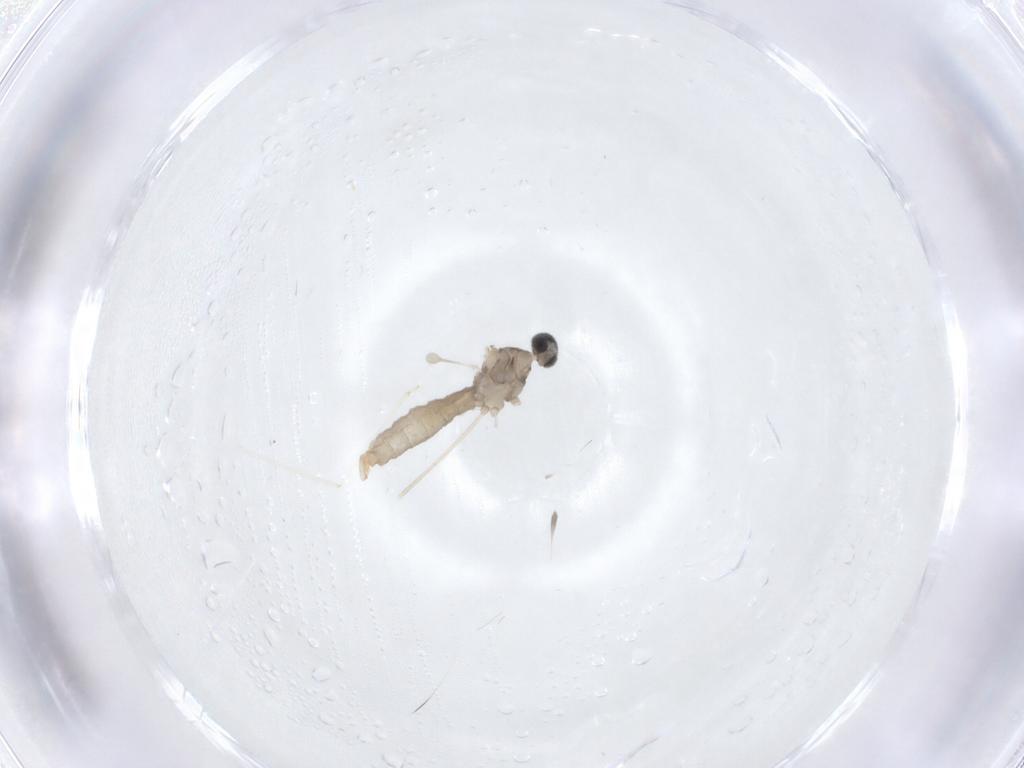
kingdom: Animalia
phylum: Arthropoda
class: Insecta
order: Diptera
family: Cecidomyiidae
